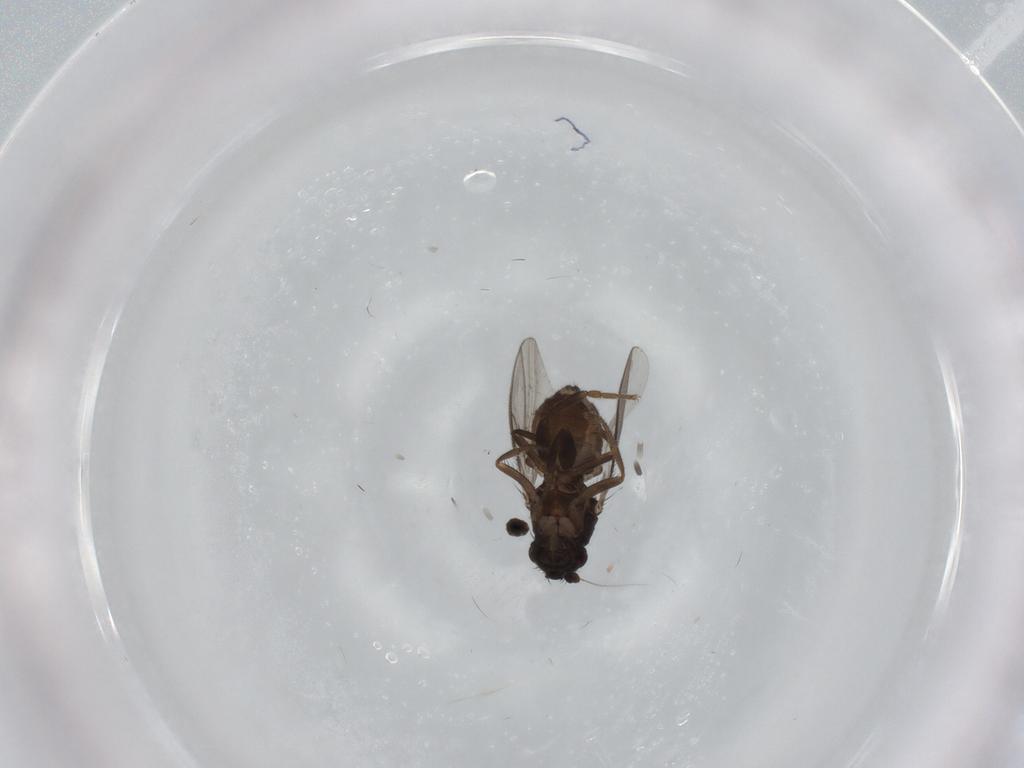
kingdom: Animalia
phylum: Arthropoda
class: Insecta
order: Diptera
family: Sphaeroceridae
